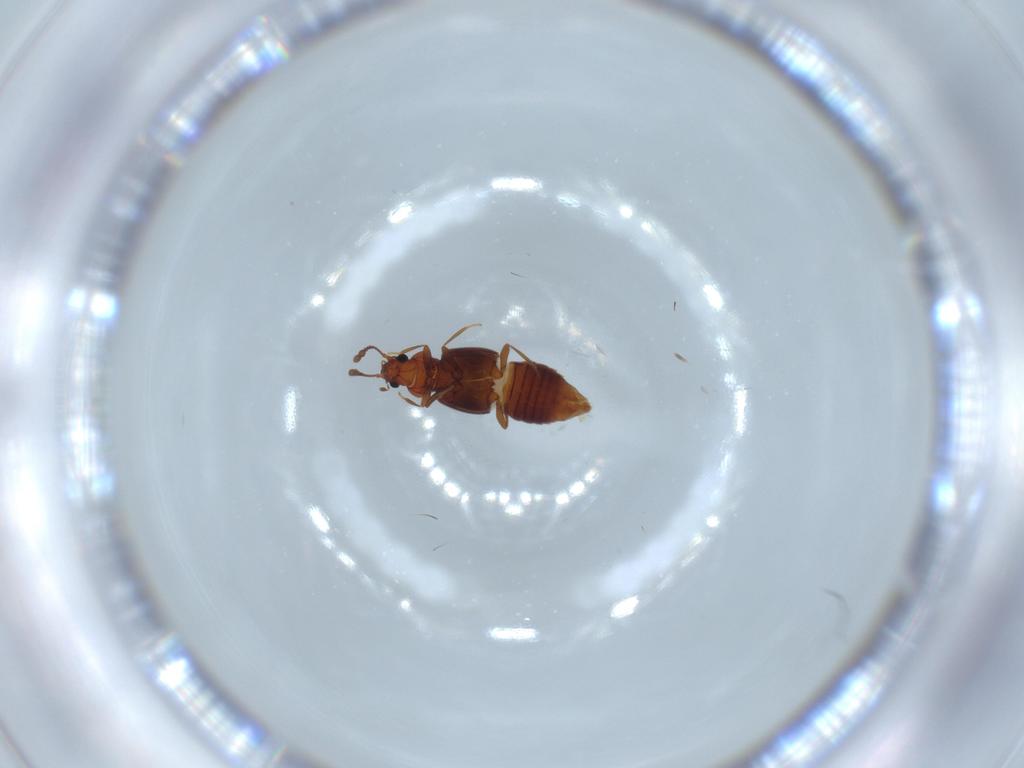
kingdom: Animalia
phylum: Arthropoda
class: Insecta
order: Coleoptera
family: Staphylinidae
